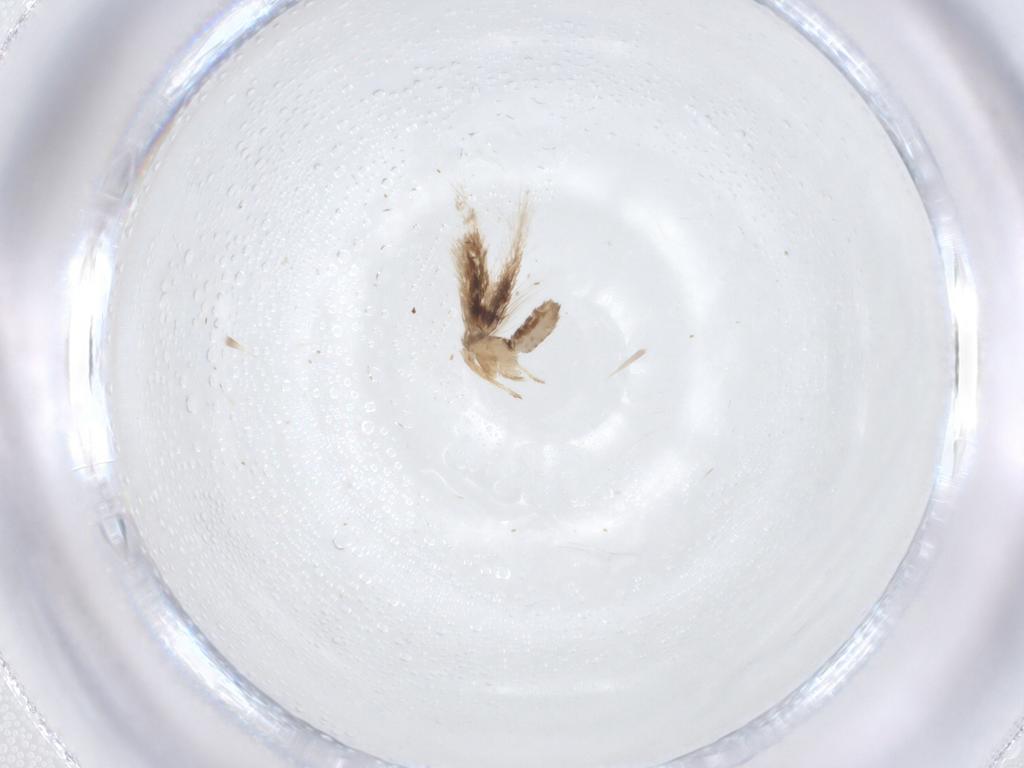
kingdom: Animalia
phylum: Arthropoda
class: Insecta
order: Lepidoptera
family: Nepticulidae
